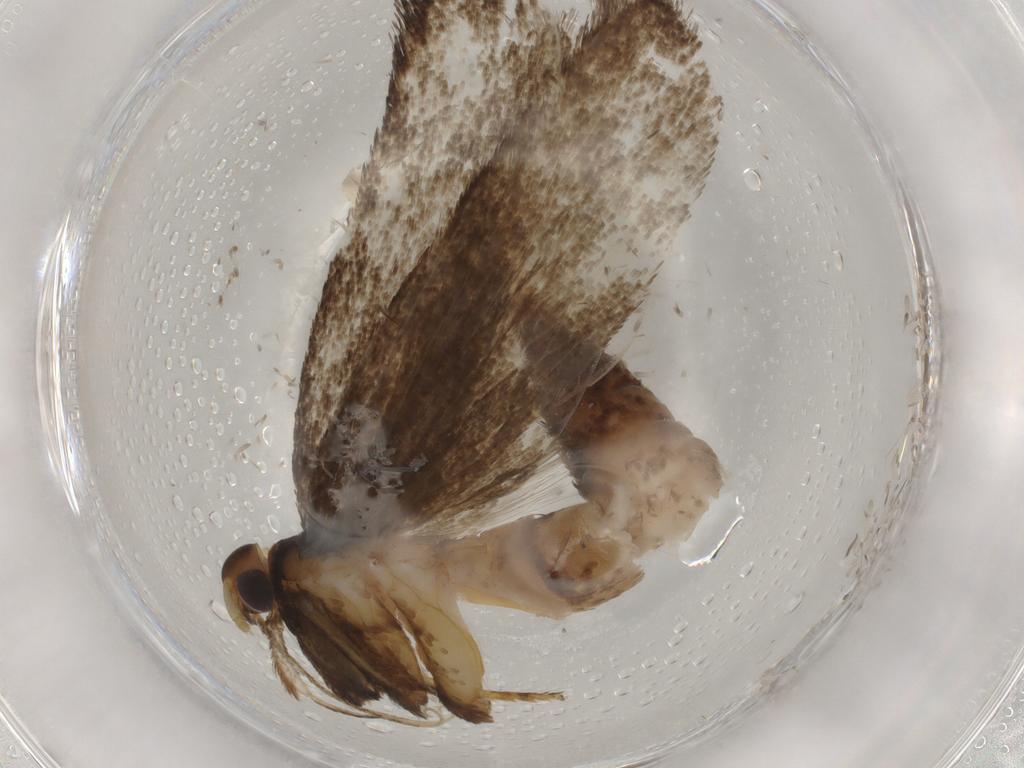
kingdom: Animalia
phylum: Arthropoda
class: Insecta
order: Lepidoptera
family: Lecithoceridae
